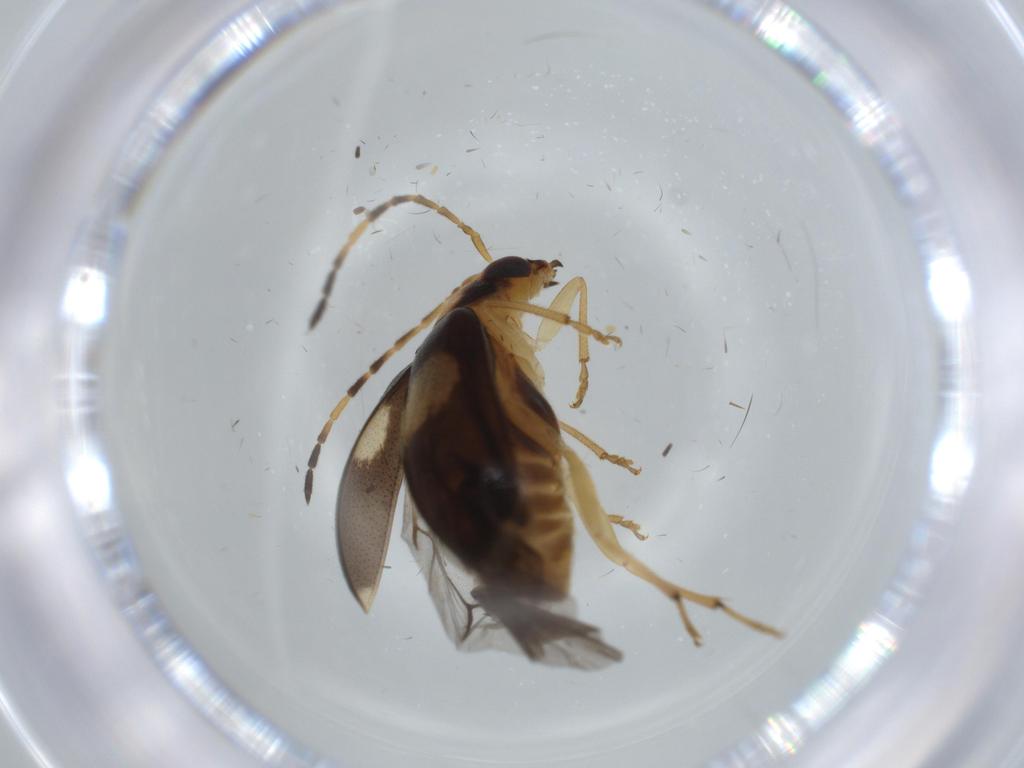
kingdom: Animalia
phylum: Arthropoda
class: Insecta
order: Coleoptera
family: Chrysomelidae
